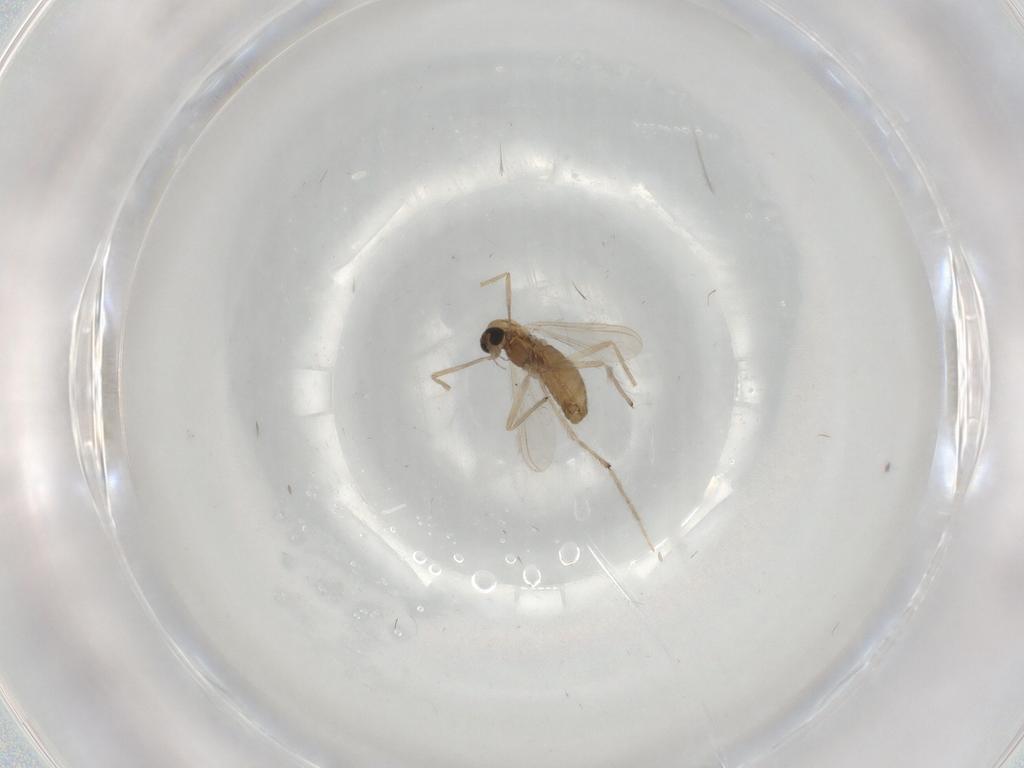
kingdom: Animalia
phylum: Arthropoda
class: Insecta
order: Diptera
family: Chironomidae
